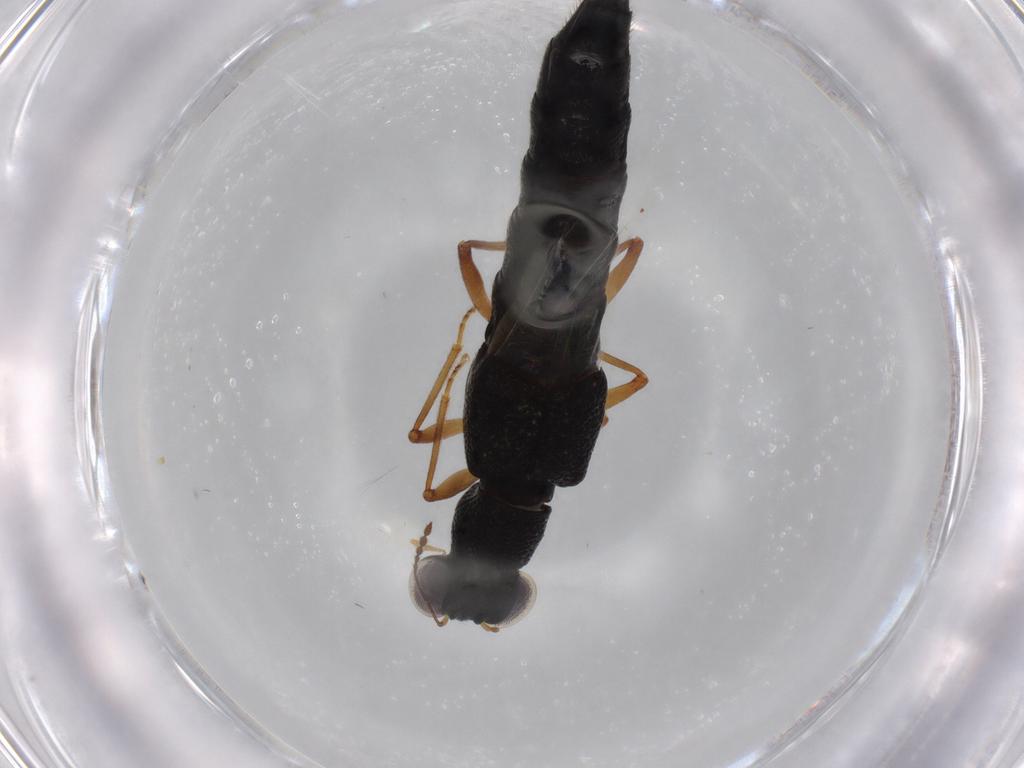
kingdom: Animalia
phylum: Arthropoda
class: Insecta
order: Coleoptera
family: Staphylinidae
